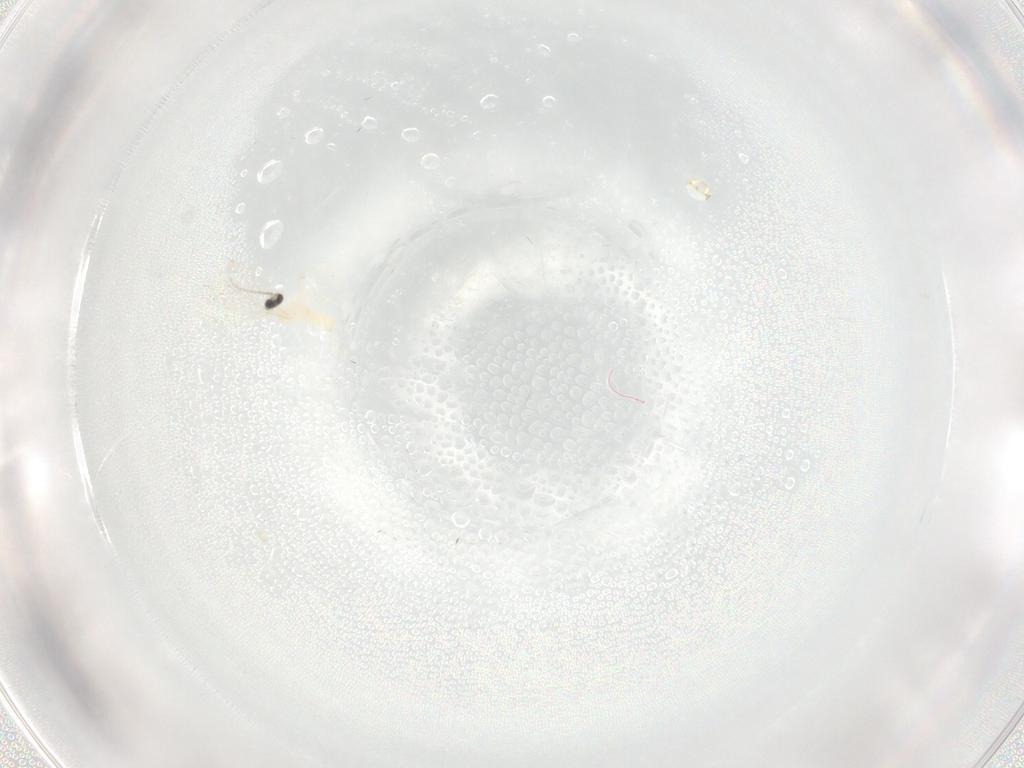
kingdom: Animalia
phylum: Arthropoda
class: Insecta
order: Diptera
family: Cecidomyiidae
